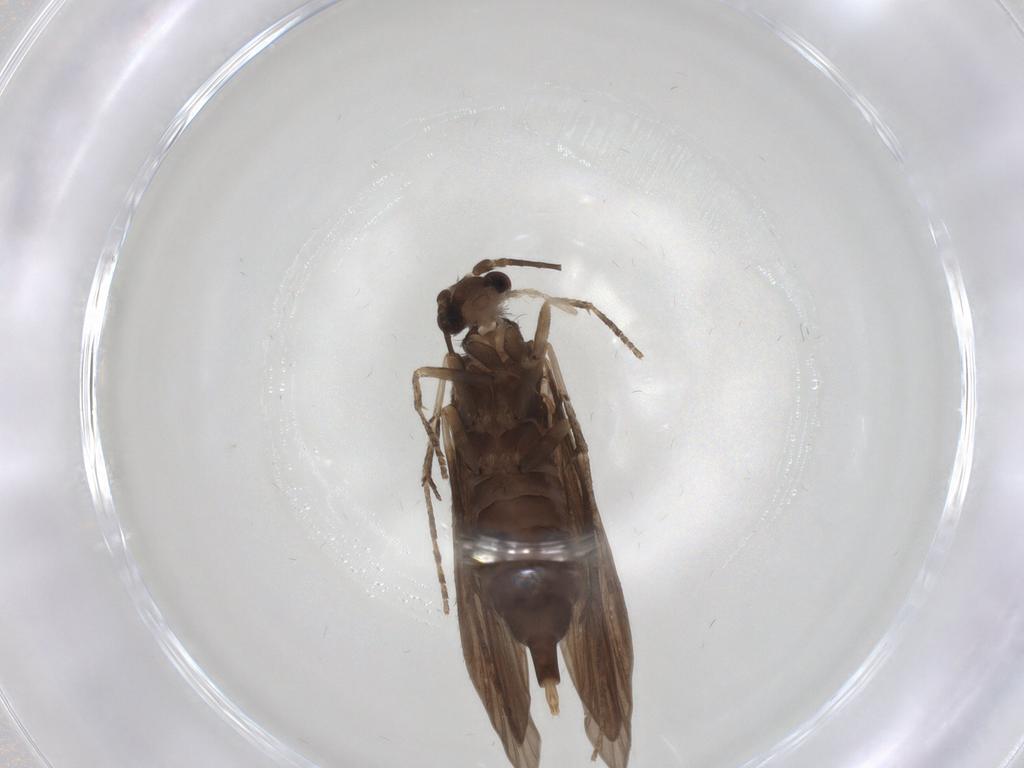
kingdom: Animalia
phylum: Arthropoda
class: Insecta
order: Trichoptera
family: Xiphocentronidae
